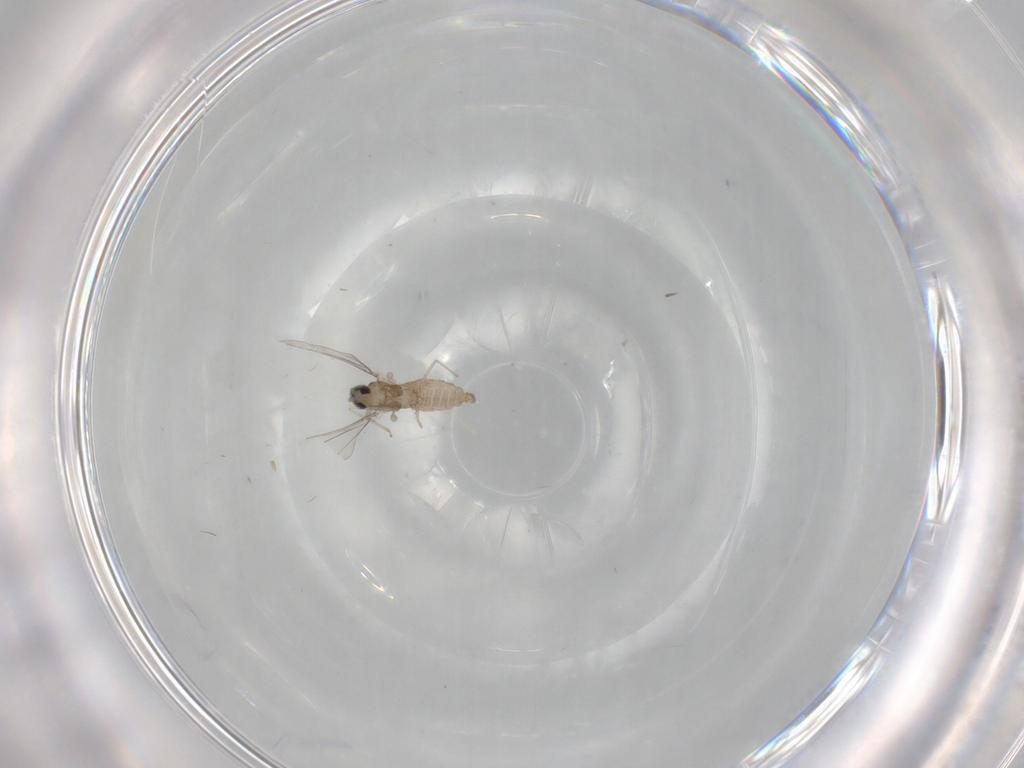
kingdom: Animalia
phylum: Arthropoda
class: Insecta
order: Diptera
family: Cecidomyiidae
